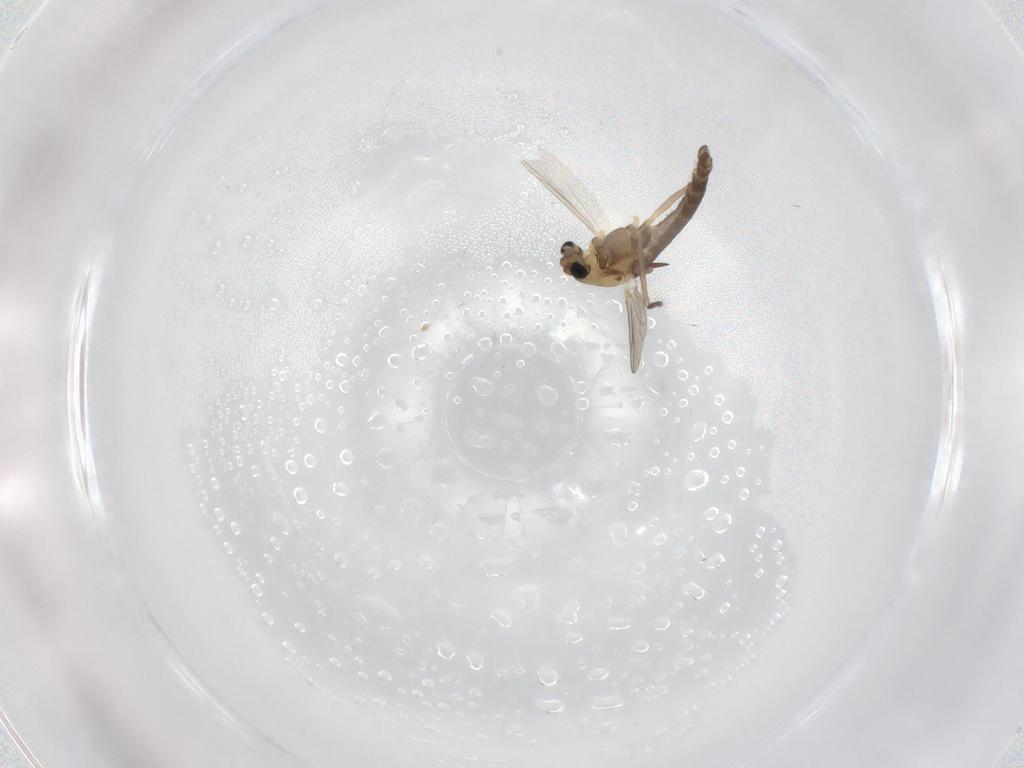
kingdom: Animalia
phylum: Arthropoda
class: Insecta
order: Diptera
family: Chironomidae
